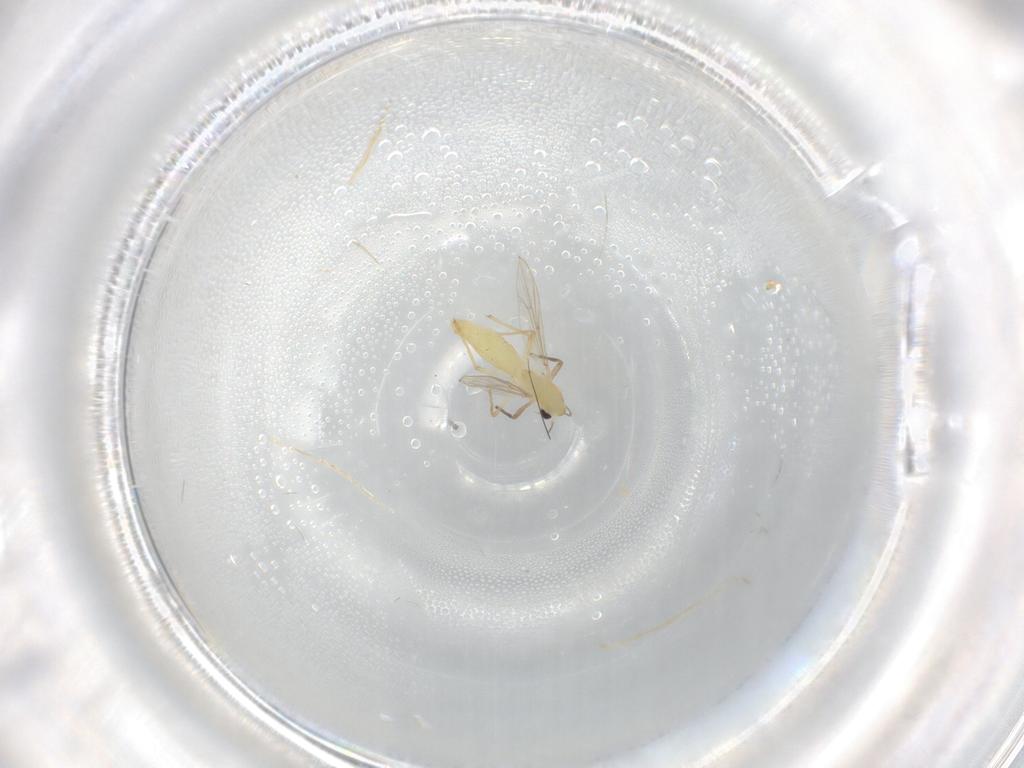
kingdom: Animalia
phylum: Arthropoda
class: Insecta
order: Diptera
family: Chironomidae
